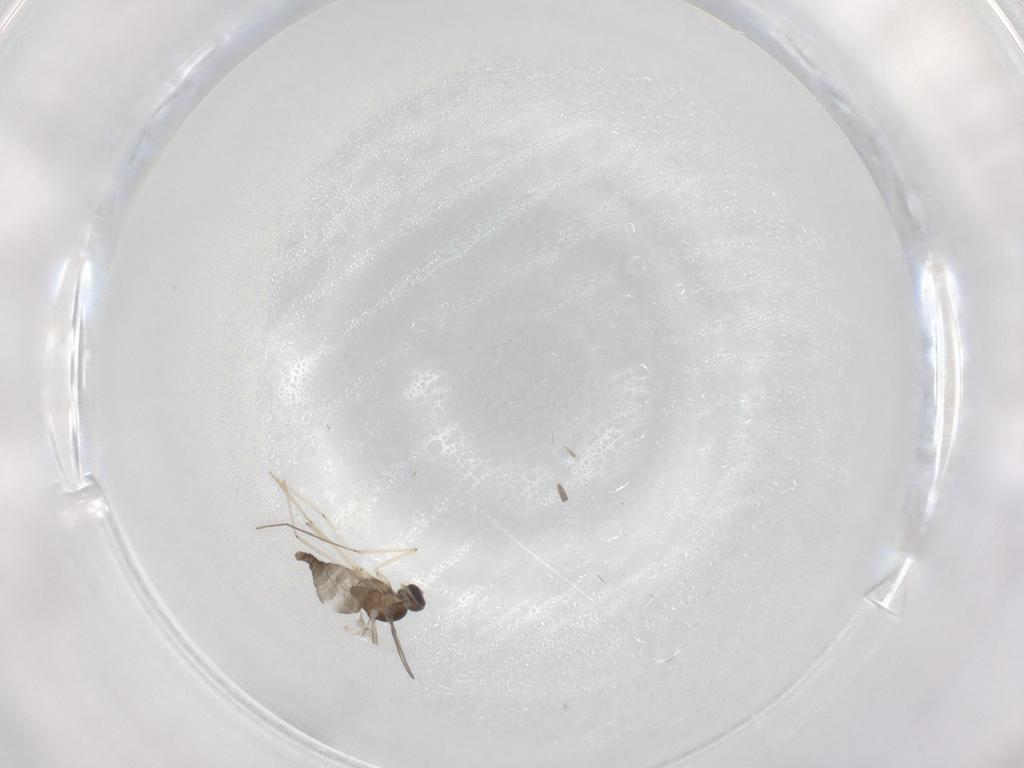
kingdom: Animalia
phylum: Arthropoda
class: Insecta
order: Diptera
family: Cecidomyiidae
